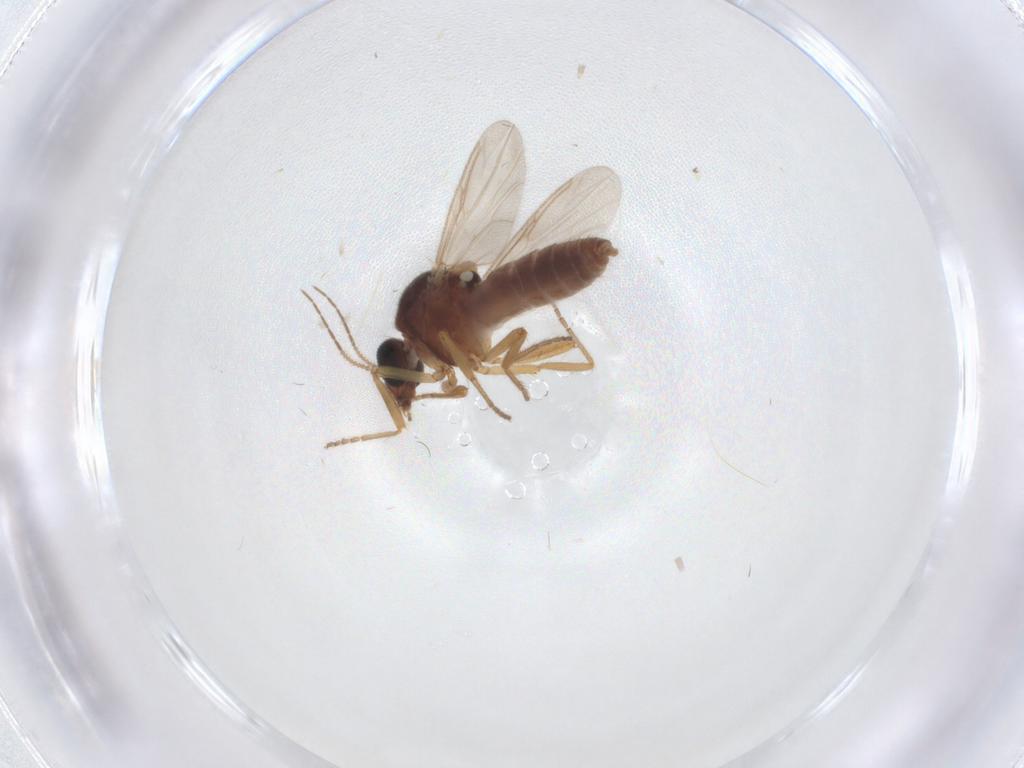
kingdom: Animalia
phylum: Arthropoda
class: Insecta
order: Diptera
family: Ceratopogonidae
